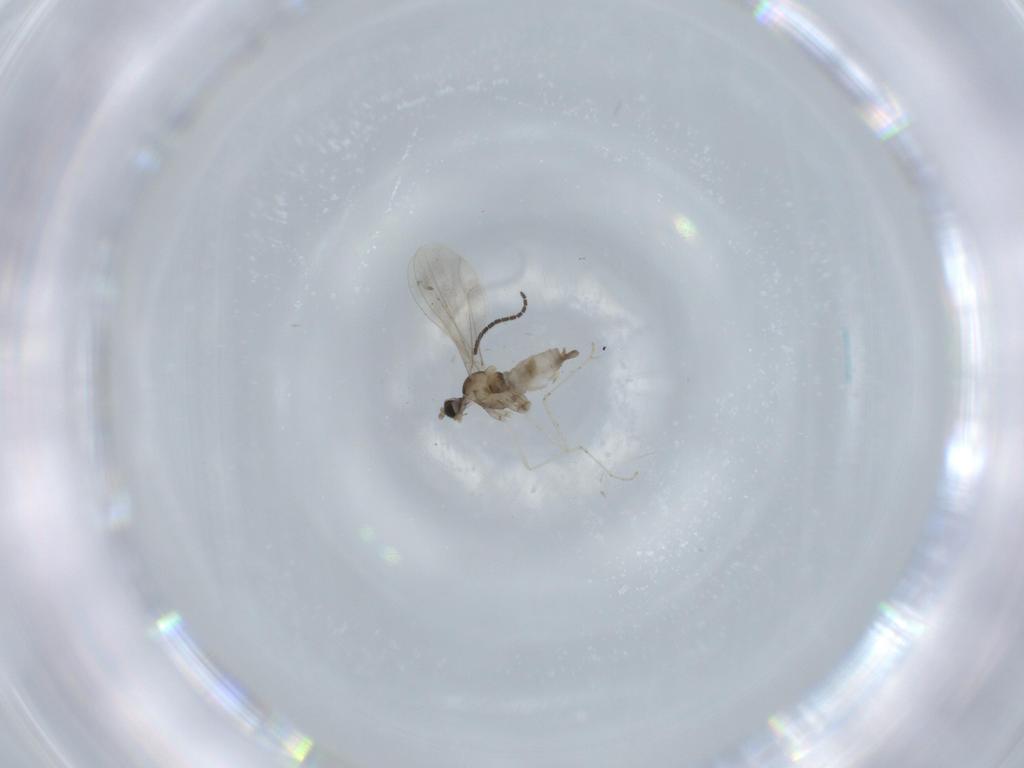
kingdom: Animalia
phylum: Arthropoda
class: Insecta
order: Diptera
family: Cecidomyiidae
